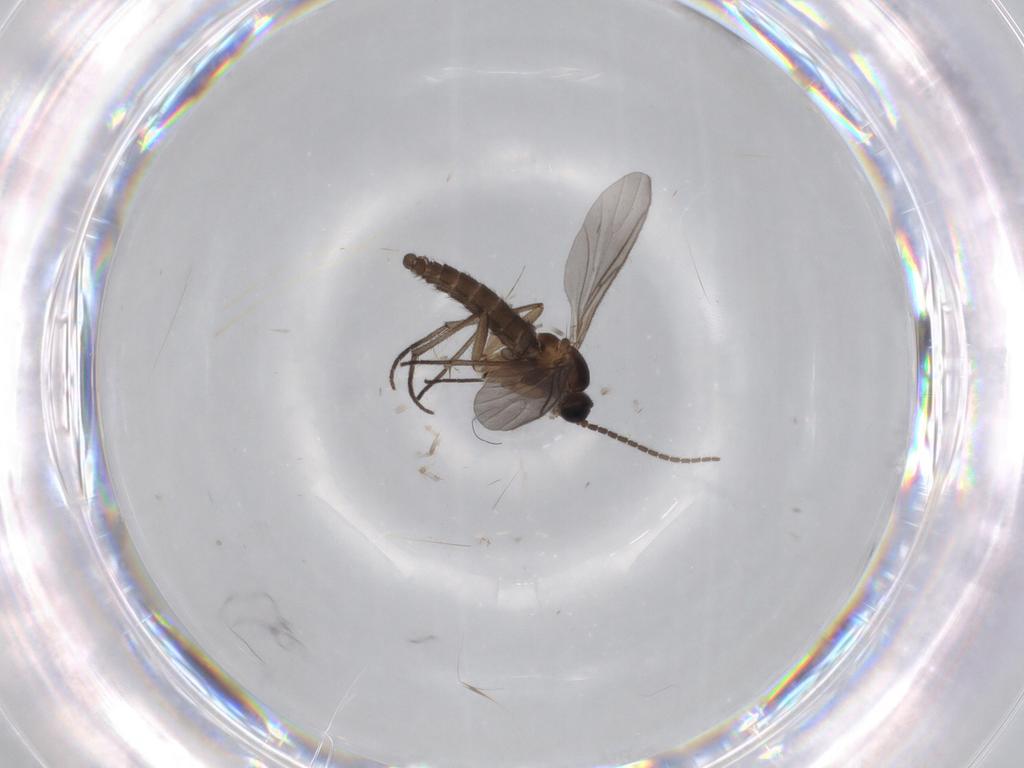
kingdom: Animalia
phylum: Arthropoda
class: Insecta
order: Diptera
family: Sciaridae
